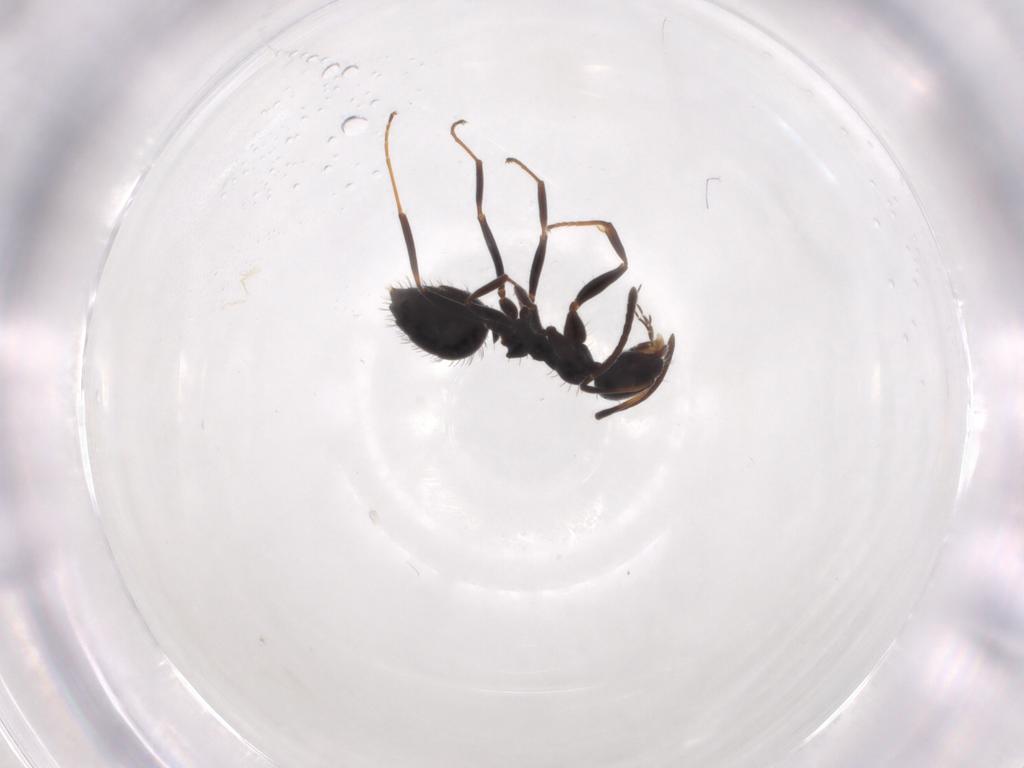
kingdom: Animalia
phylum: Arthropoda
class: Insecta
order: Hymenoptera
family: Formicidae
